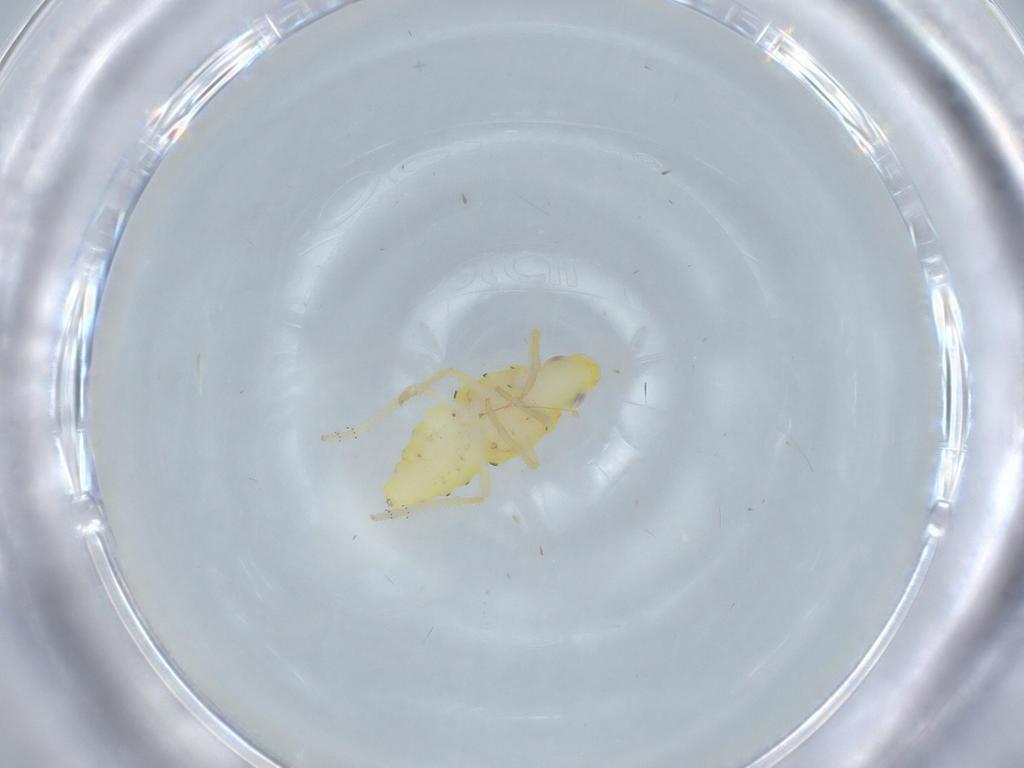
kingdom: Animalia
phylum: Arthropoda
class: Insecta
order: Hemiptera
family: Tropiduchidae
